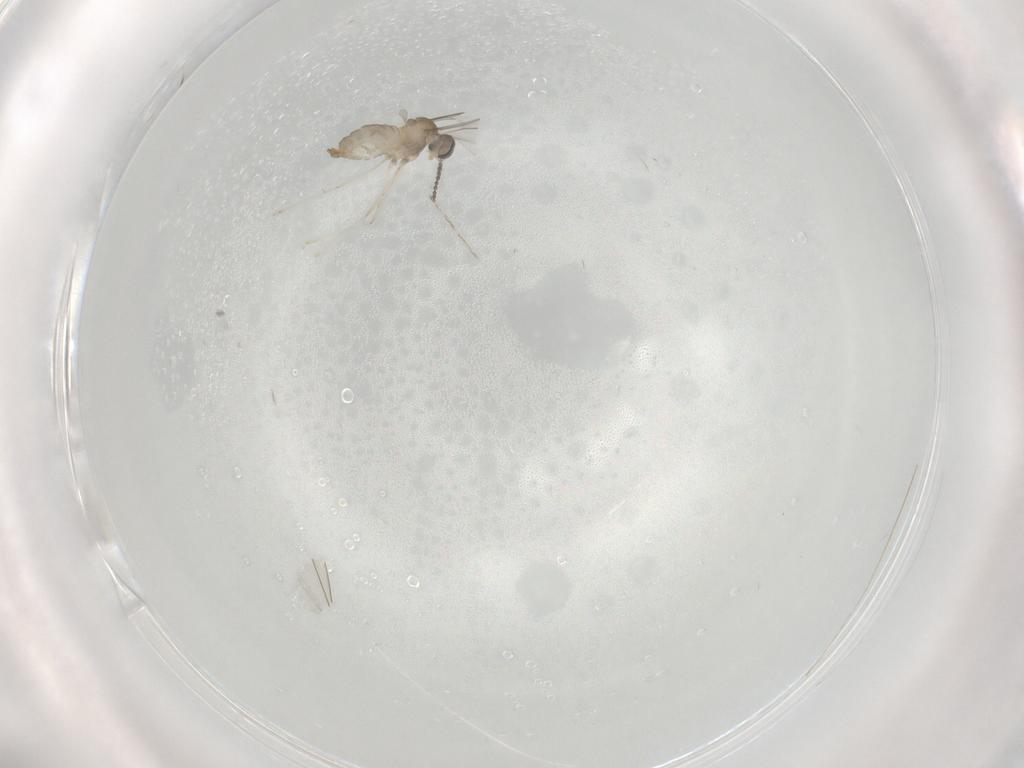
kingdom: Animalia
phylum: Arthropoda
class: Insecta
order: Diptera
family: Limoniidae
